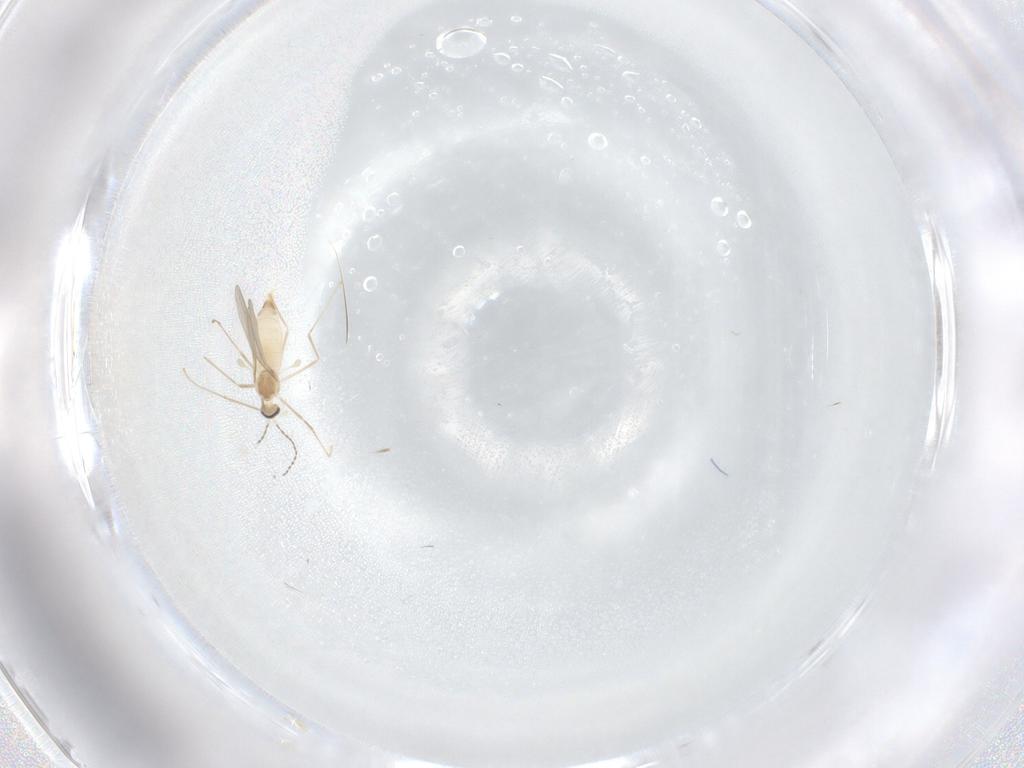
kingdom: Animalia
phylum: Arthropoda
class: Insecta
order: Diptera
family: Cecidomyiidae
